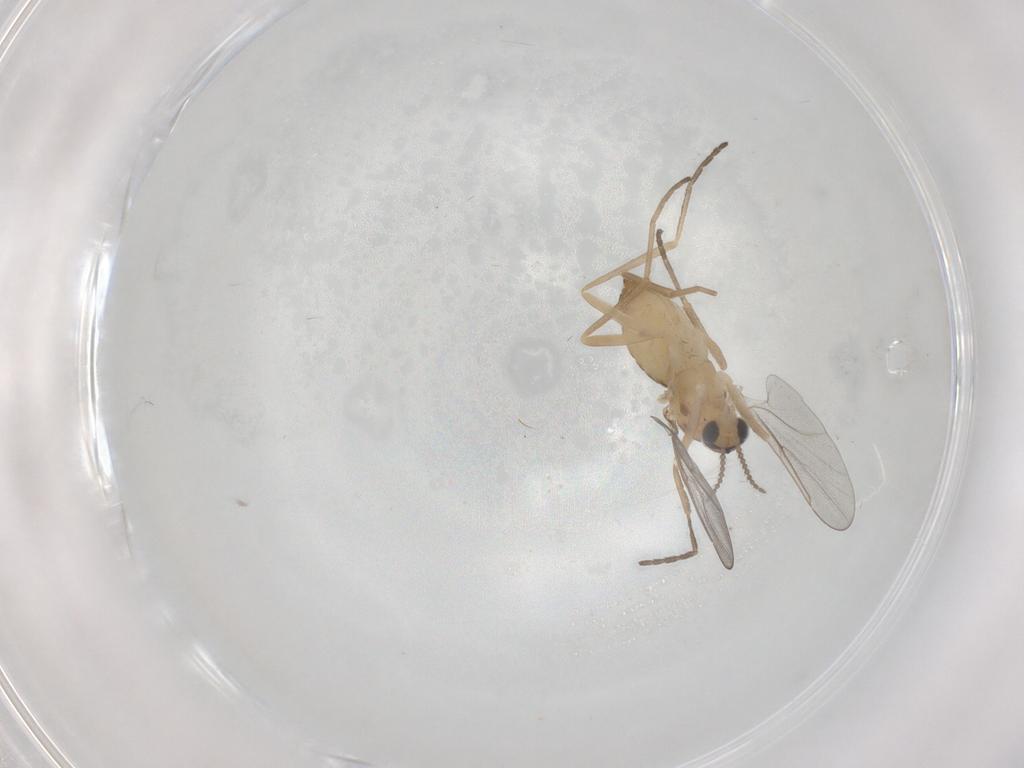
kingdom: Animalia
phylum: Arthropoda
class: Insecta
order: Diptera
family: Cecidomyiidae
